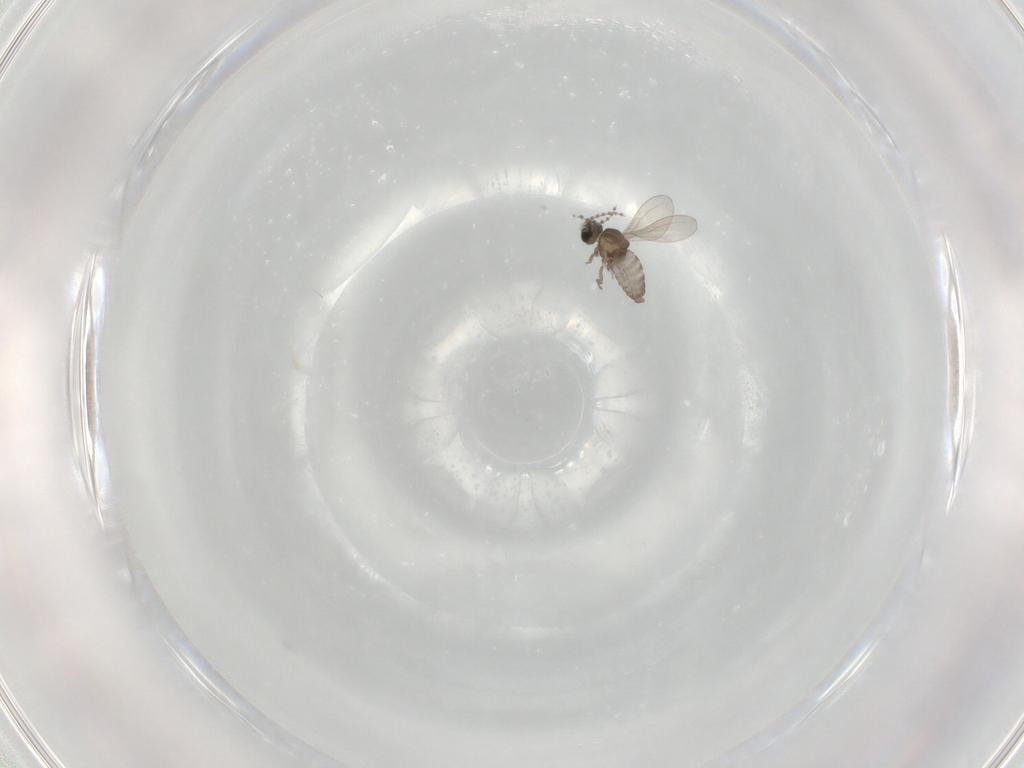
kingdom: Animalia
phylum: Arthropoda
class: Insecta
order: Diptera
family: Cecidomyiidae
